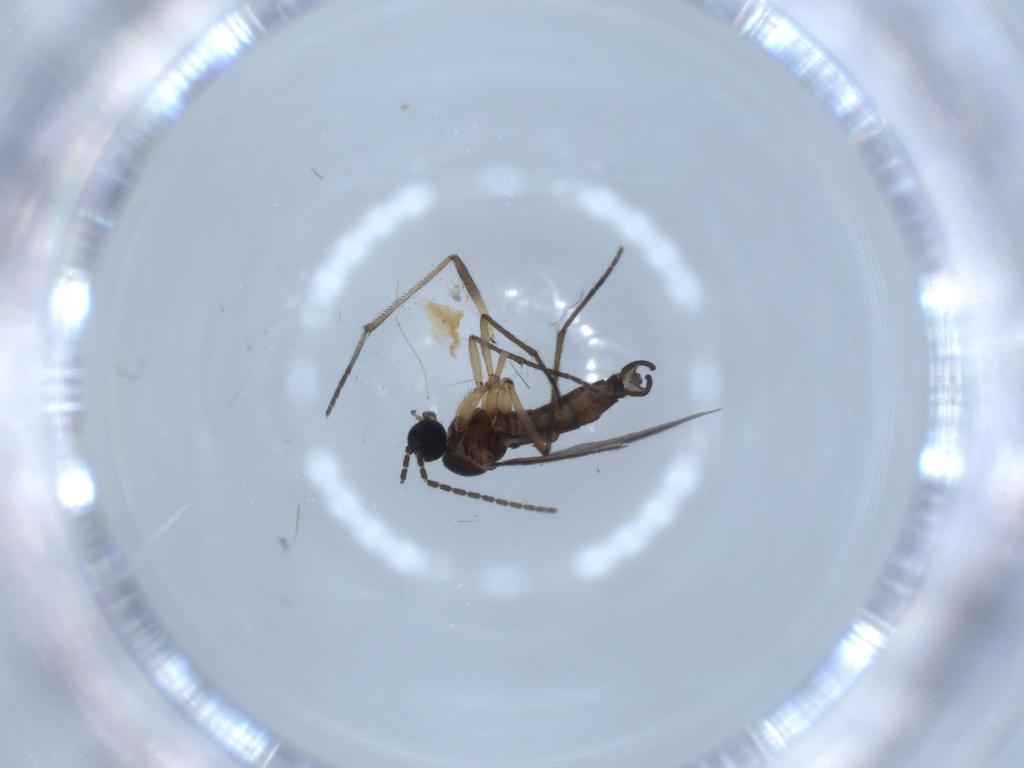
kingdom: Animalia
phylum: Arthropoda
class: Insecta
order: Diptera
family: Sciaridae
